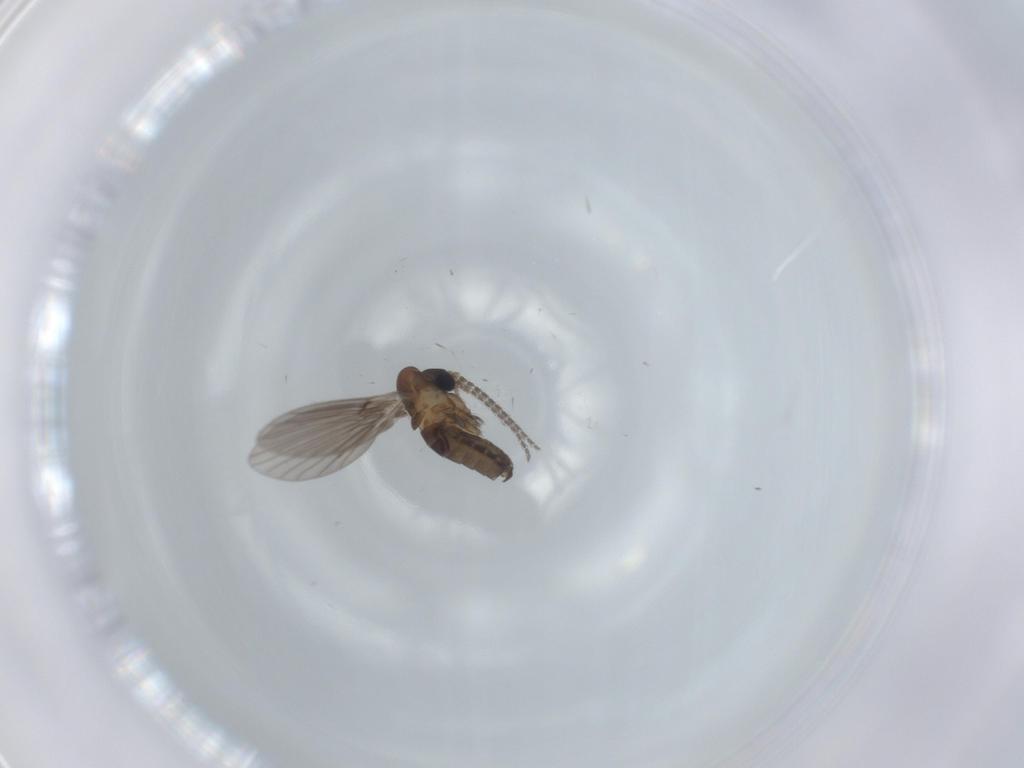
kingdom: Animalia
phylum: Arthropoda
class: Insecta
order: Diptera
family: Psychodidae
